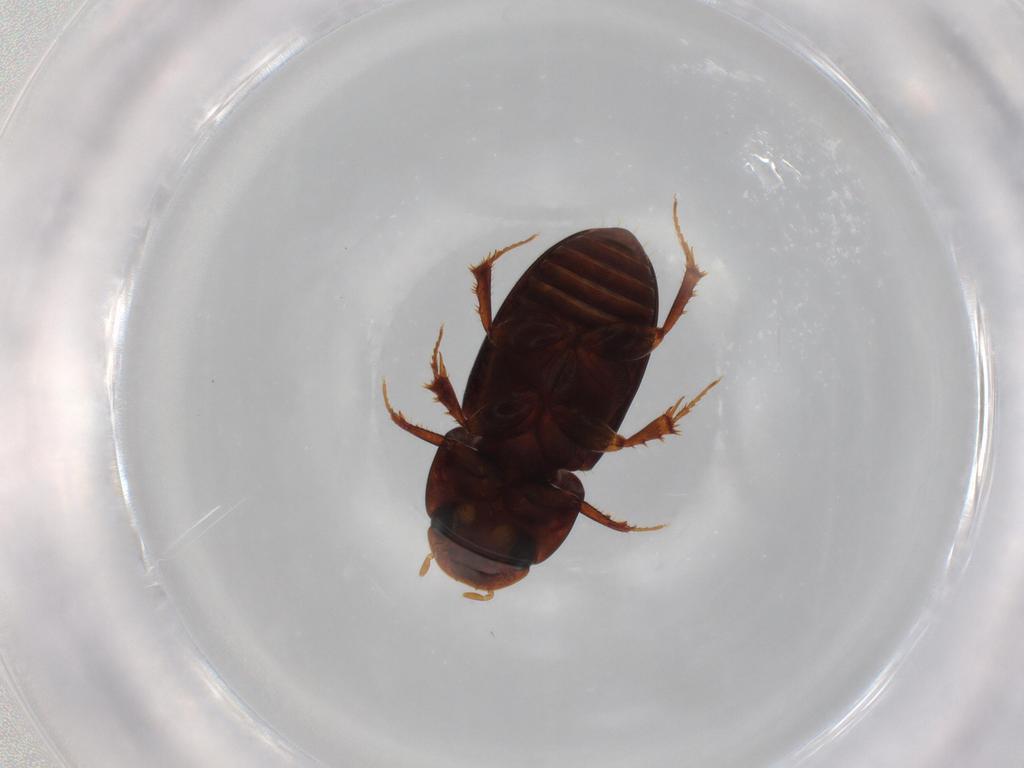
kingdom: Animalia
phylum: Arthropoda
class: Insecta
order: Coleoptera
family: Scarabaeidae
